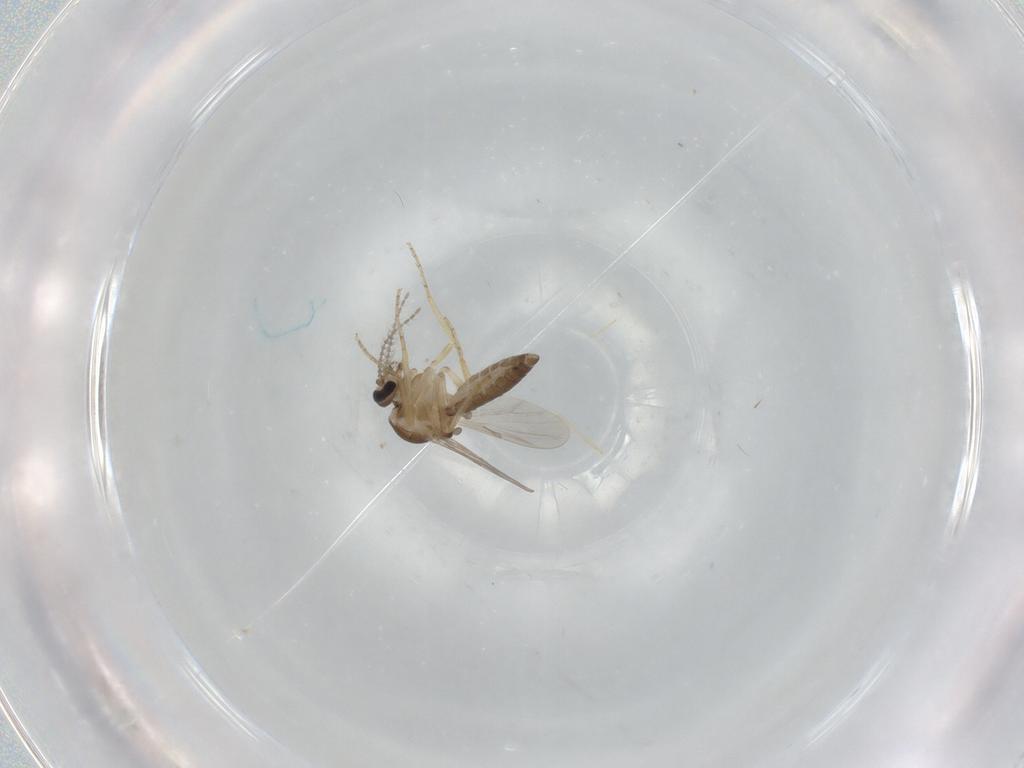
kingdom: Animalia
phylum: Arthropoda
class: Insecta
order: Diptera
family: Ceratopogonidae
